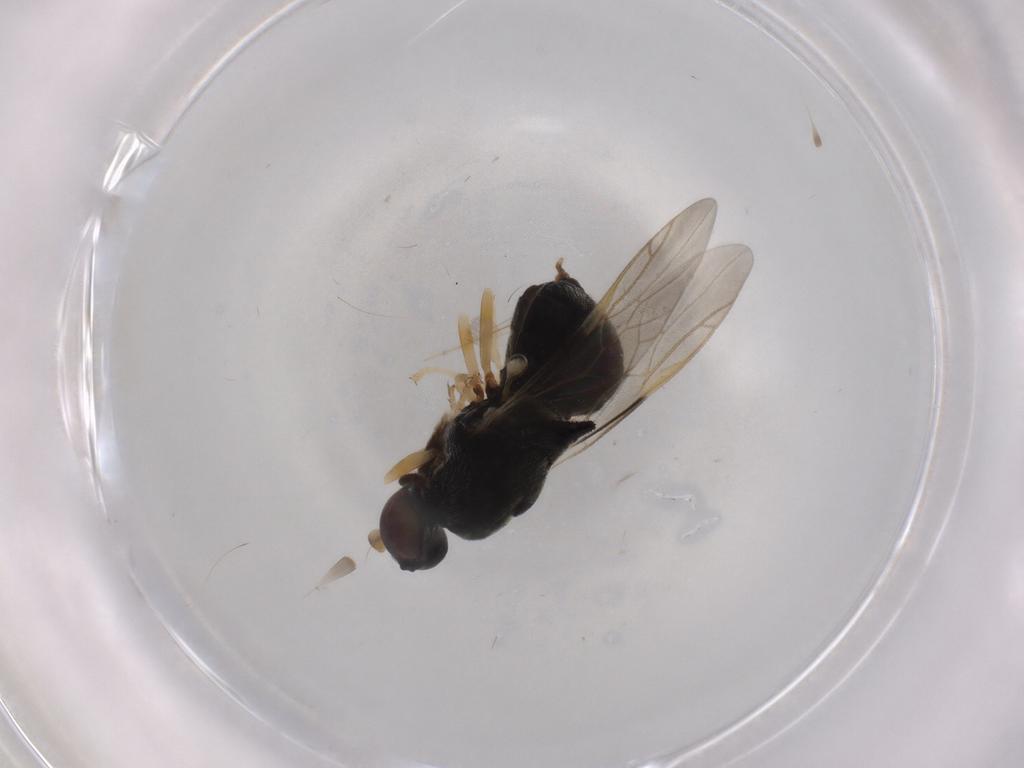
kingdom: Animalia
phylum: Arthropoda
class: Insecta
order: Diptera
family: Stratiomyidae
